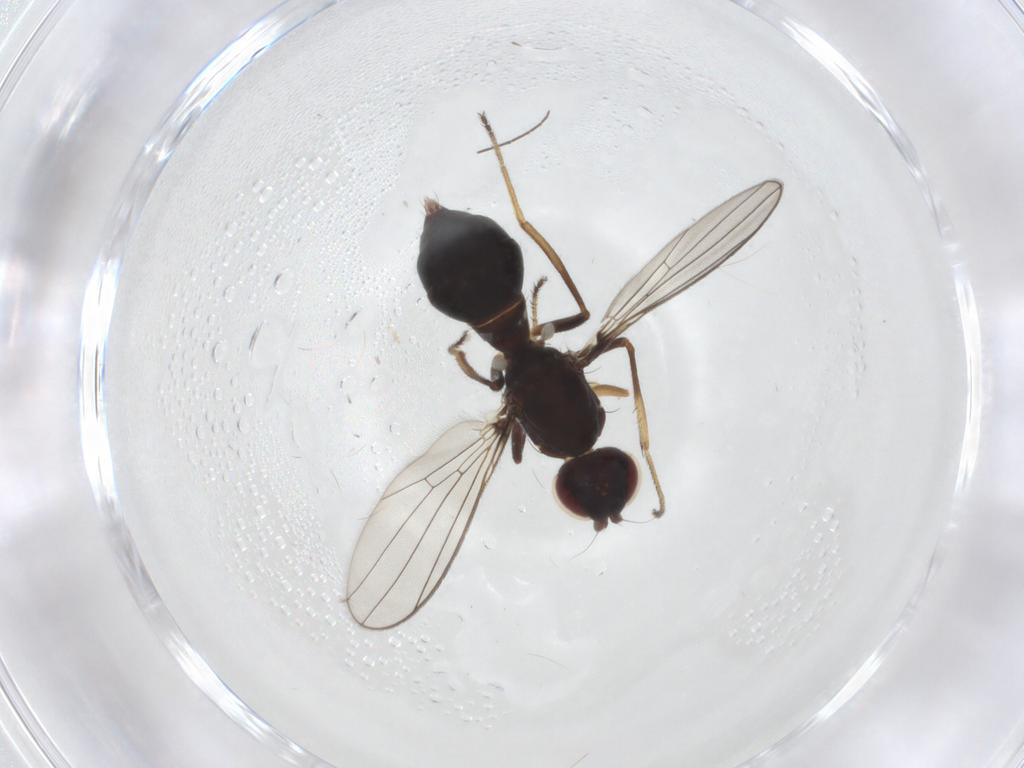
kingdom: Animalia
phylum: Arthropoda
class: Insecta
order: Diptera
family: Sepsidae
